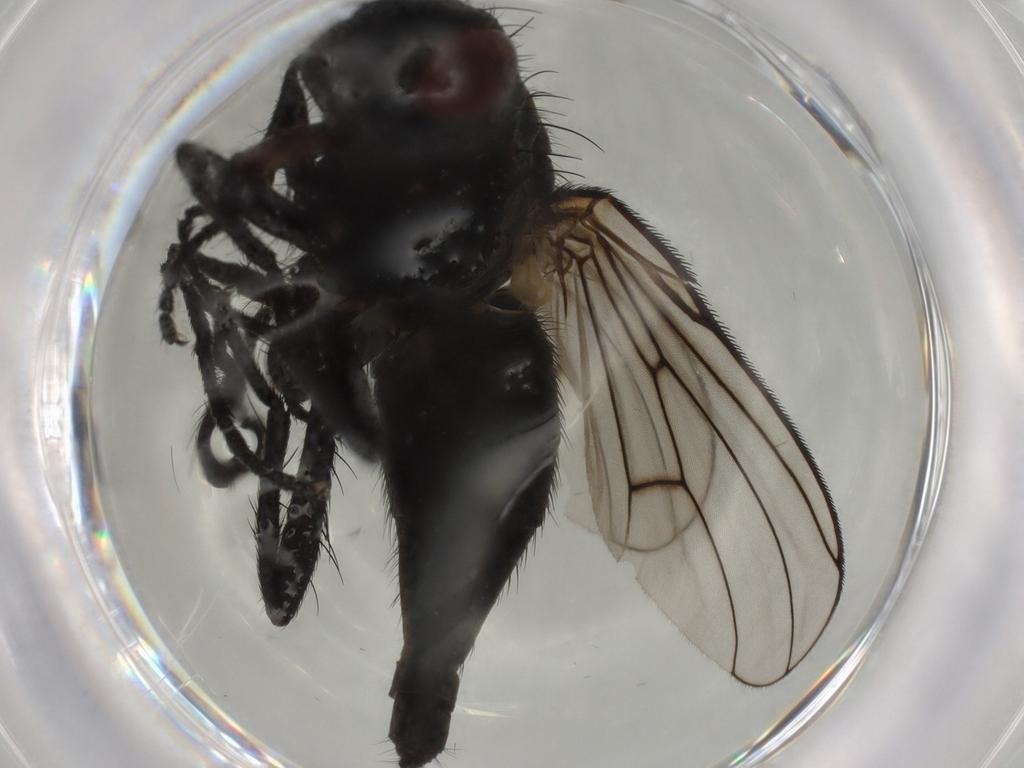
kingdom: Animalia
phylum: Arthropoda
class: Insecta
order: Diptera
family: Muscidae
